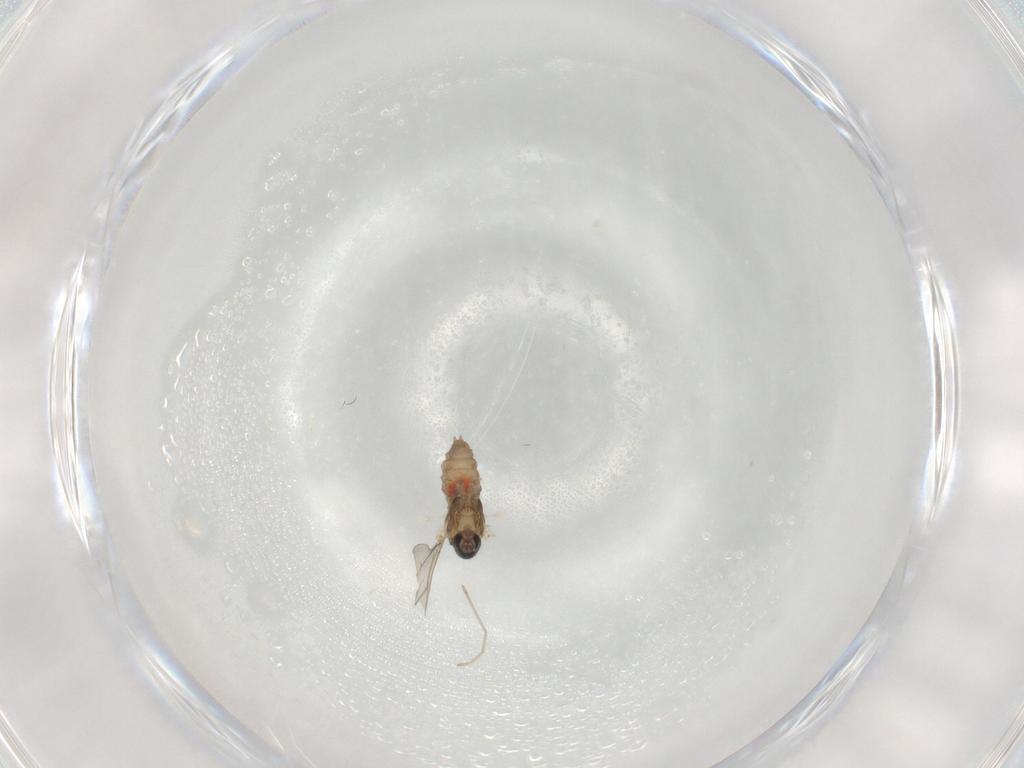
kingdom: Animalia
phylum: Arthropoda
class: Insecta
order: Diptera
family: Cecidomyiidae
